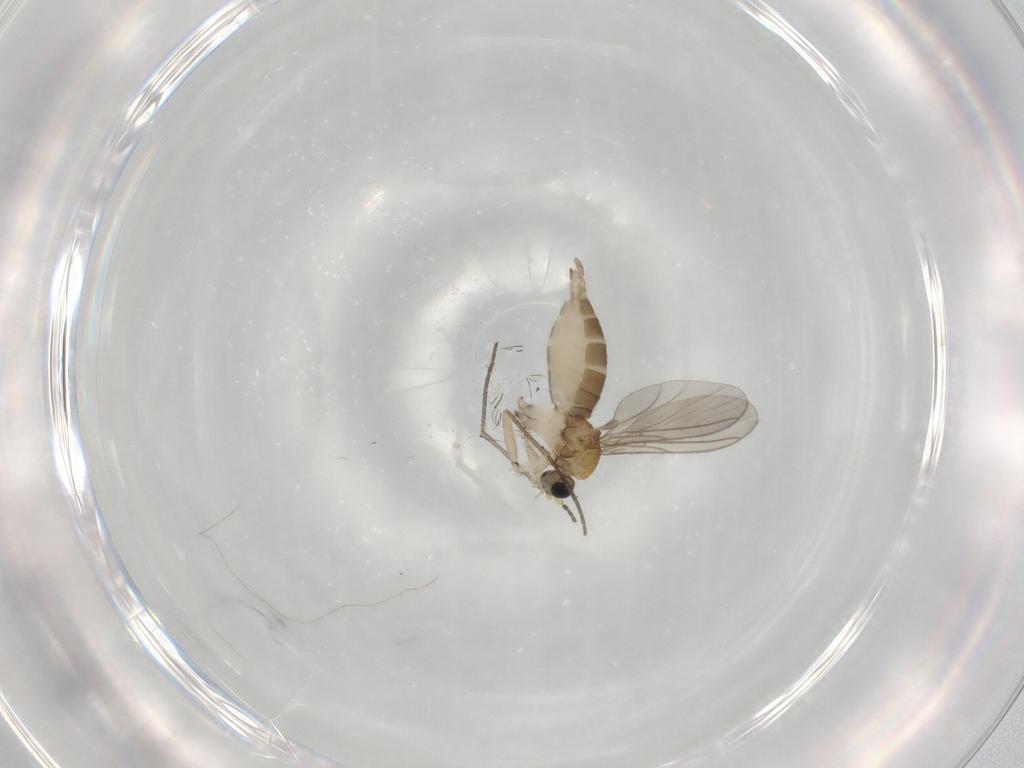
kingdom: Animalia
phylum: Arthropoda
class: Insecta
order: Diptera
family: Sciaridae
